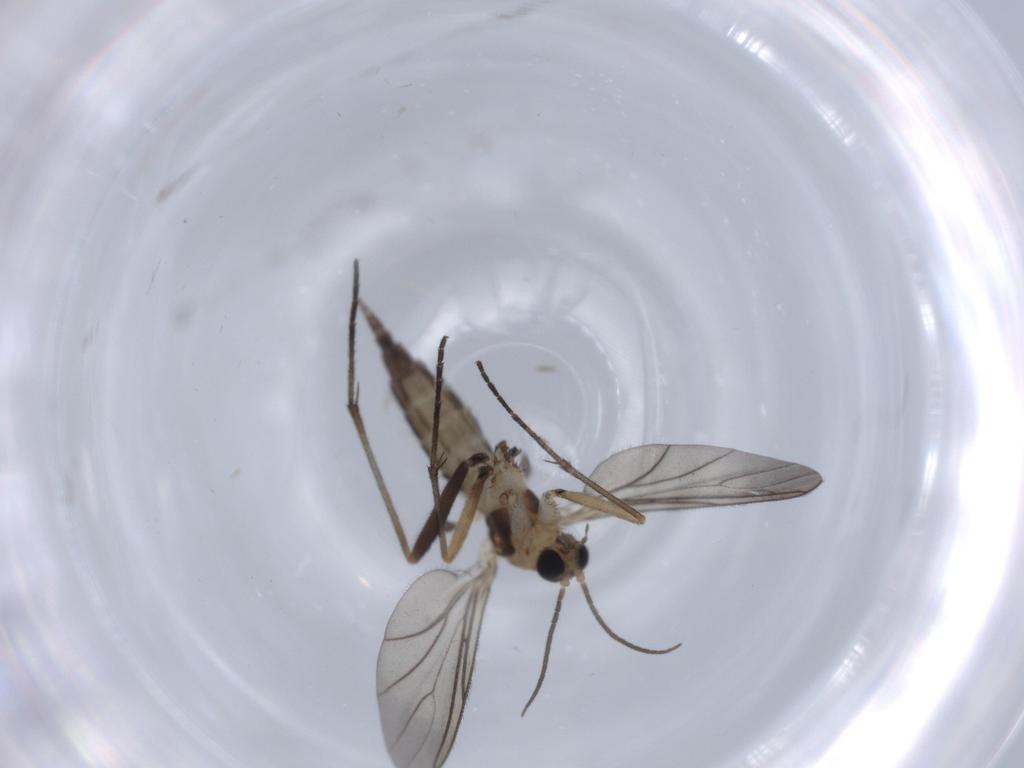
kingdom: Animalia
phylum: Arthropoda
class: Insecta
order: Diptera
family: Sciaridae
